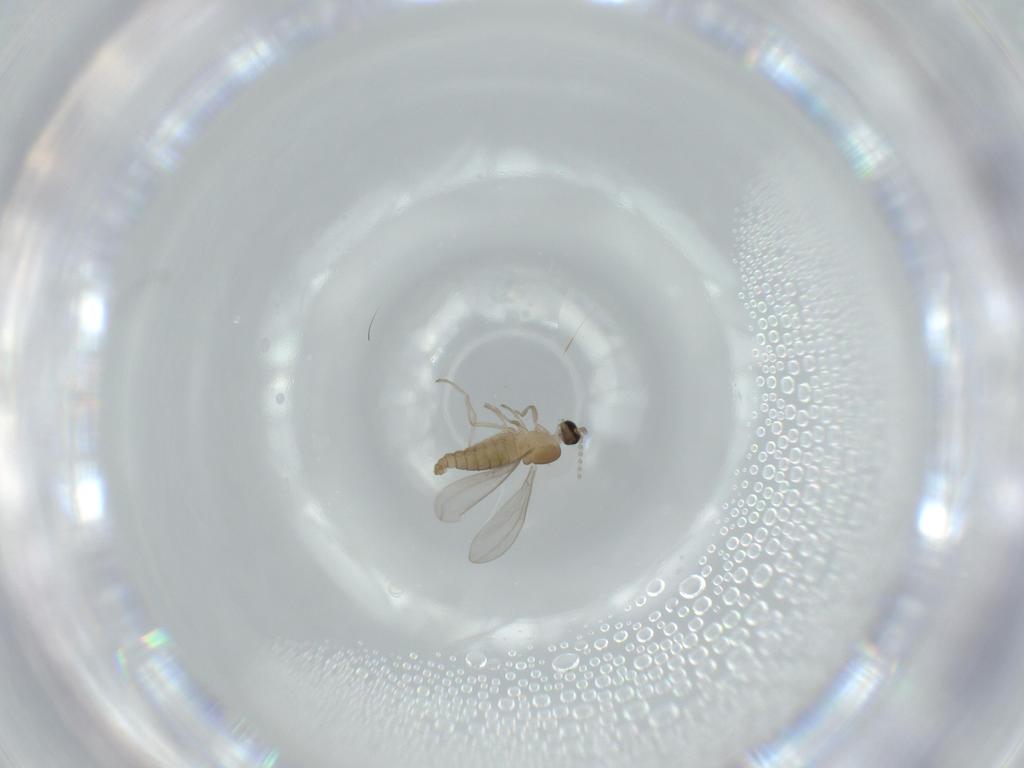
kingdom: Animalia
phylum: Arthropoda
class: Insecta
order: Diptera
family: Cecidomyiidae
